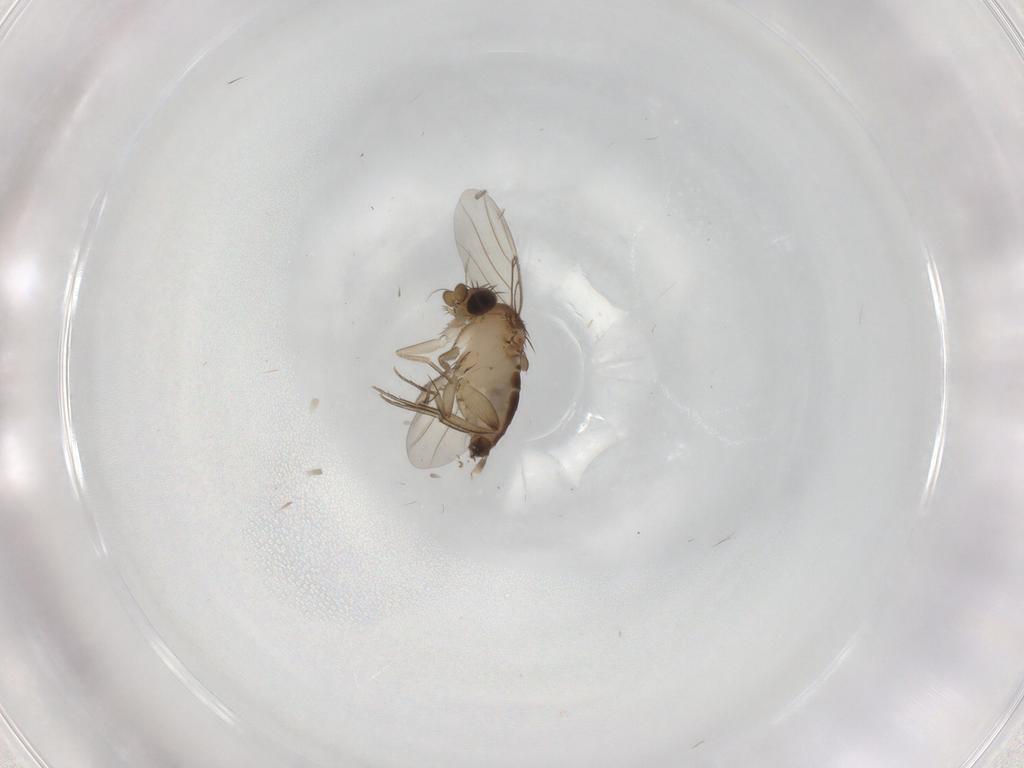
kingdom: Animalia
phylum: Arthropoda
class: Insecta
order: Diptera
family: Phoridae
